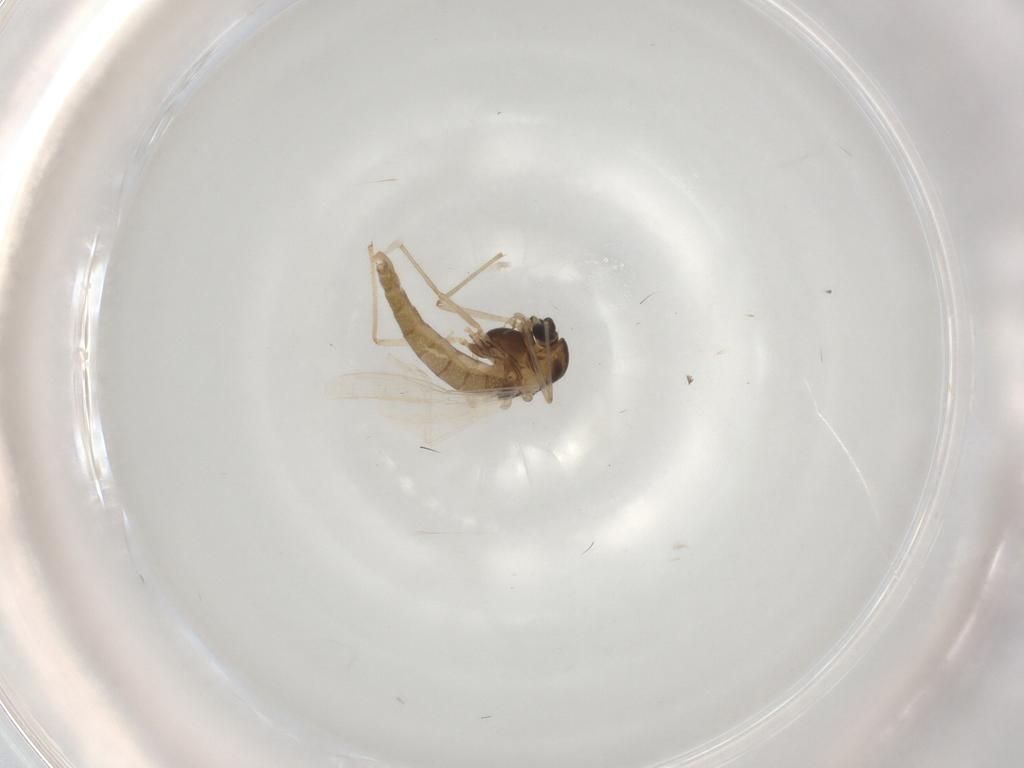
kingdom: Animalia
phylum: Arthropoda
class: Insecta
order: Diptera
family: Chironomidae
